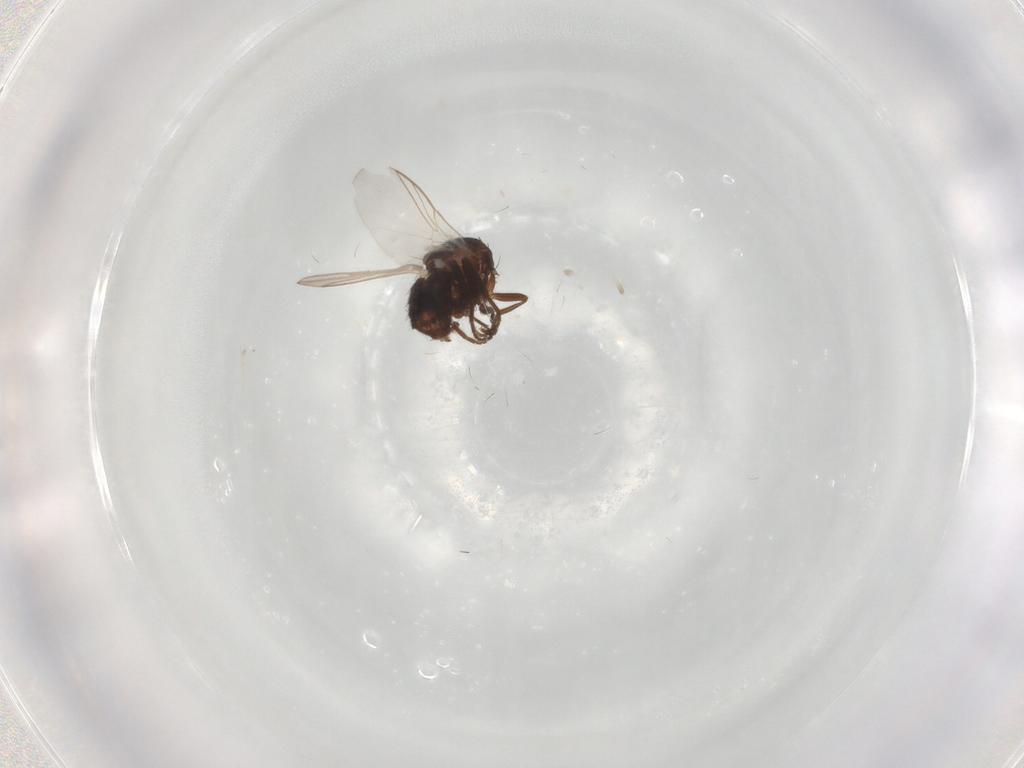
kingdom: Animalia
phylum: Arthropoda
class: Insecta
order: Diptera
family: Agromyzidae
